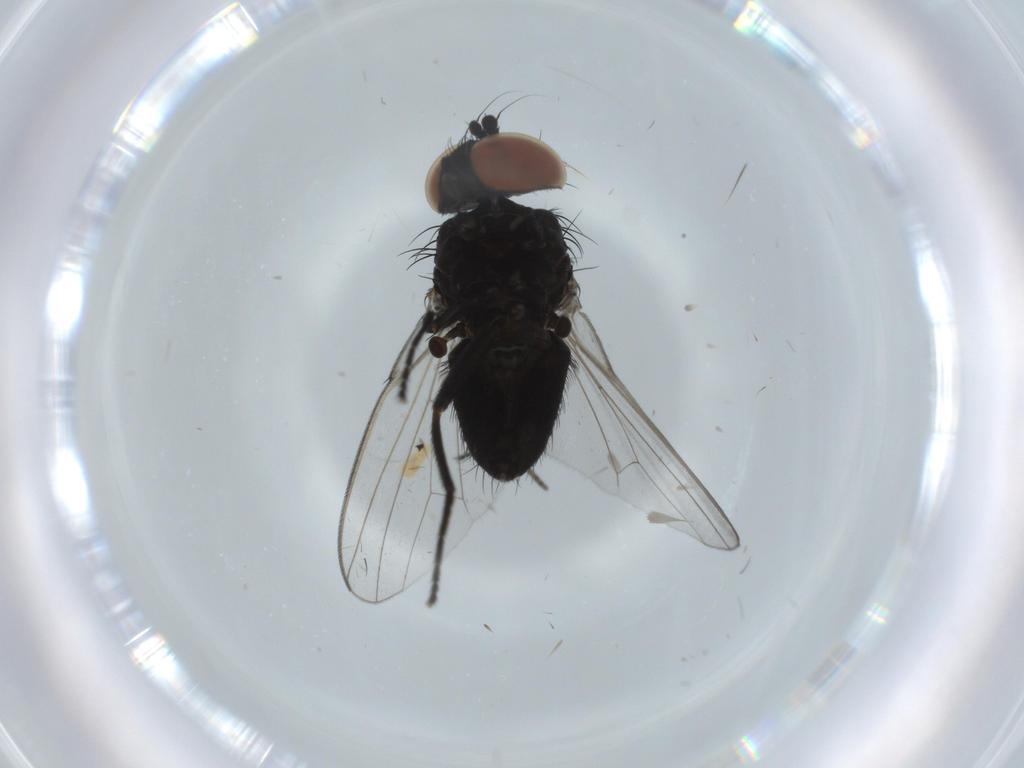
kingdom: Animalia
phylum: Arthropoda
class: Insecta
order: Diptera
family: Milichiidae
